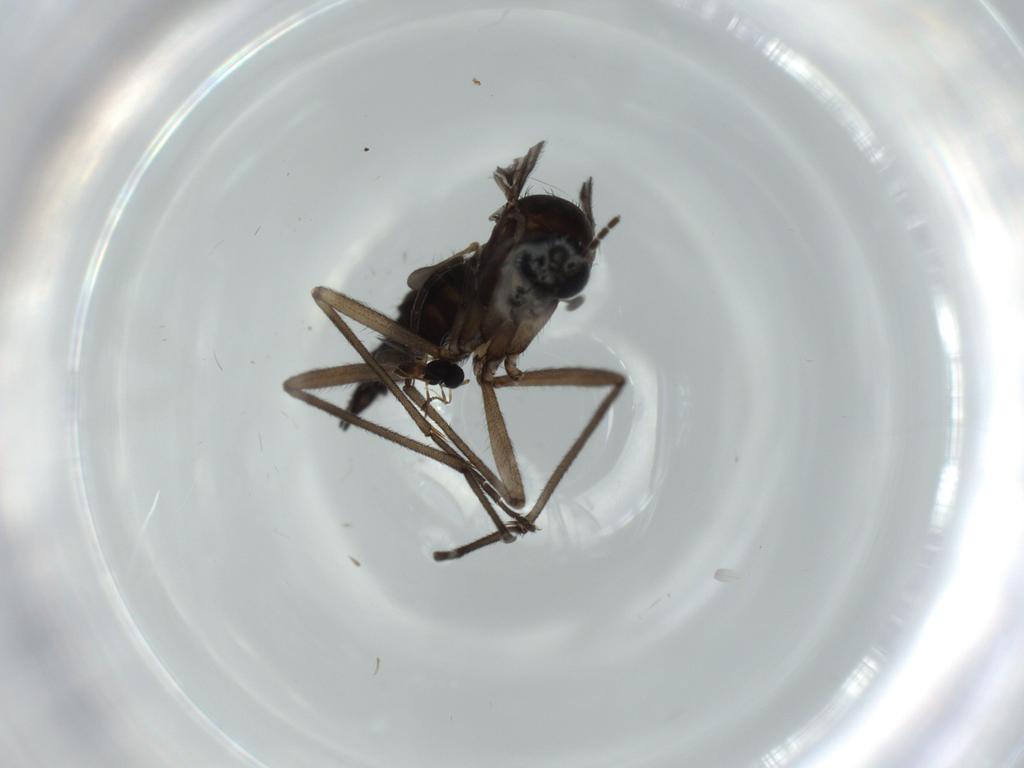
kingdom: Animalia
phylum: Arthropoda
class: Insecta
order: Diptera
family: Sciaridae
